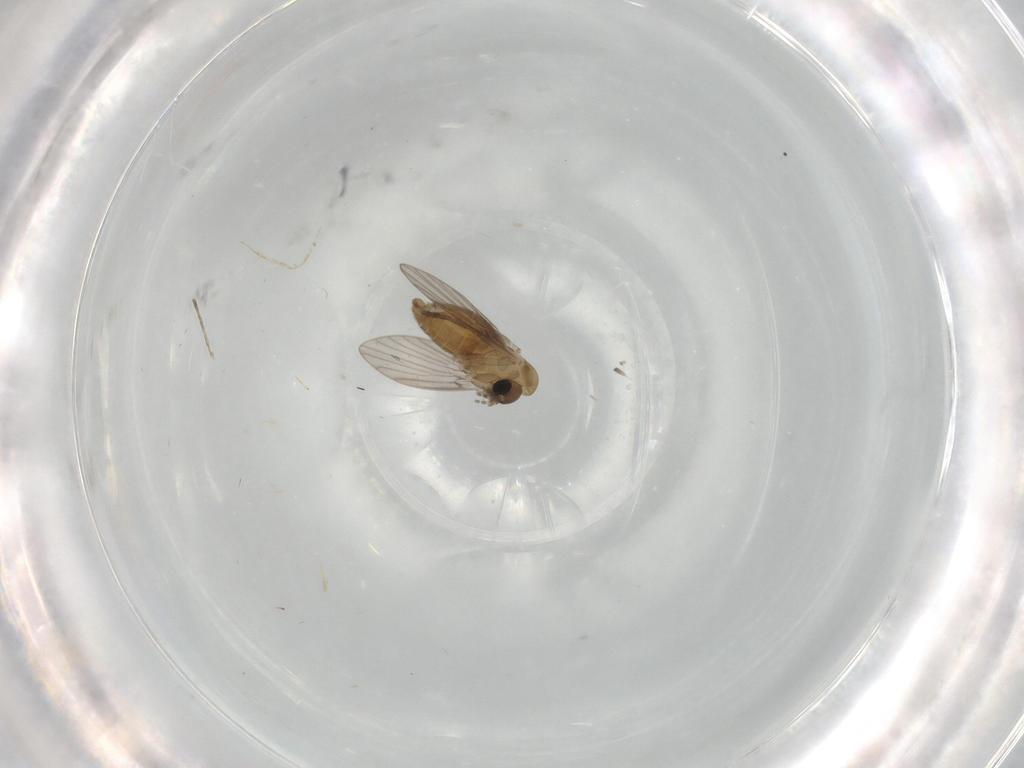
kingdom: Animalia
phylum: Arthropoda
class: Insecta
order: Diptera
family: Psychodidae
